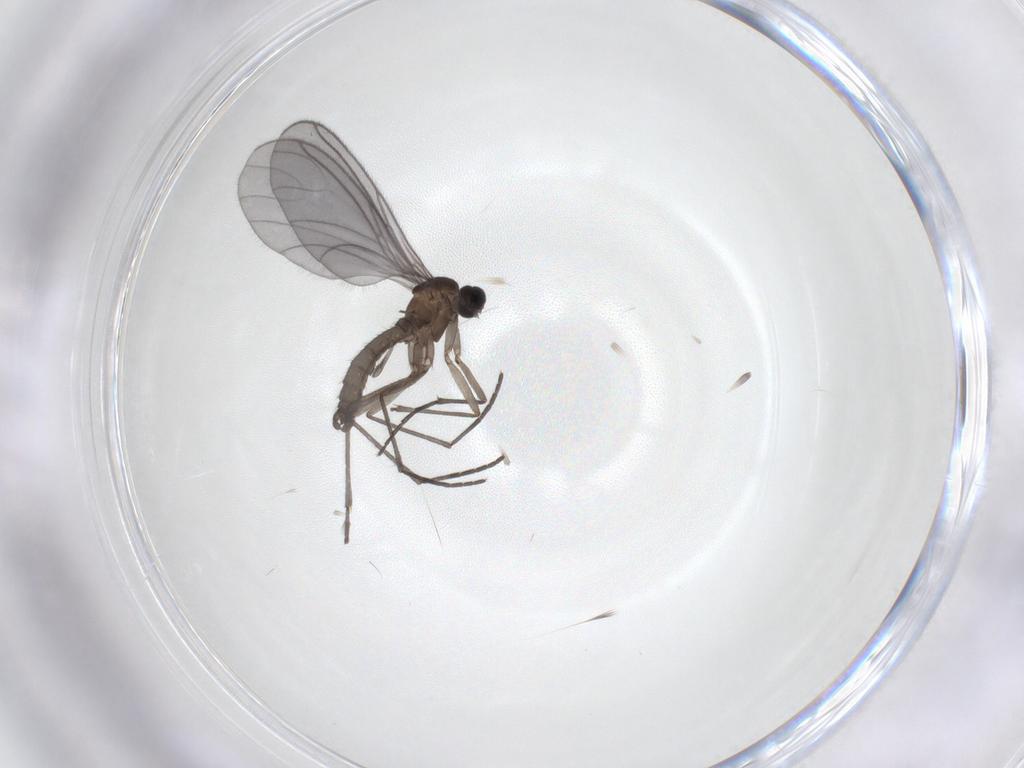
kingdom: Animalia
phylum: Arthropoda
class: Insecta
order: Diptera
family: Sciaridae
